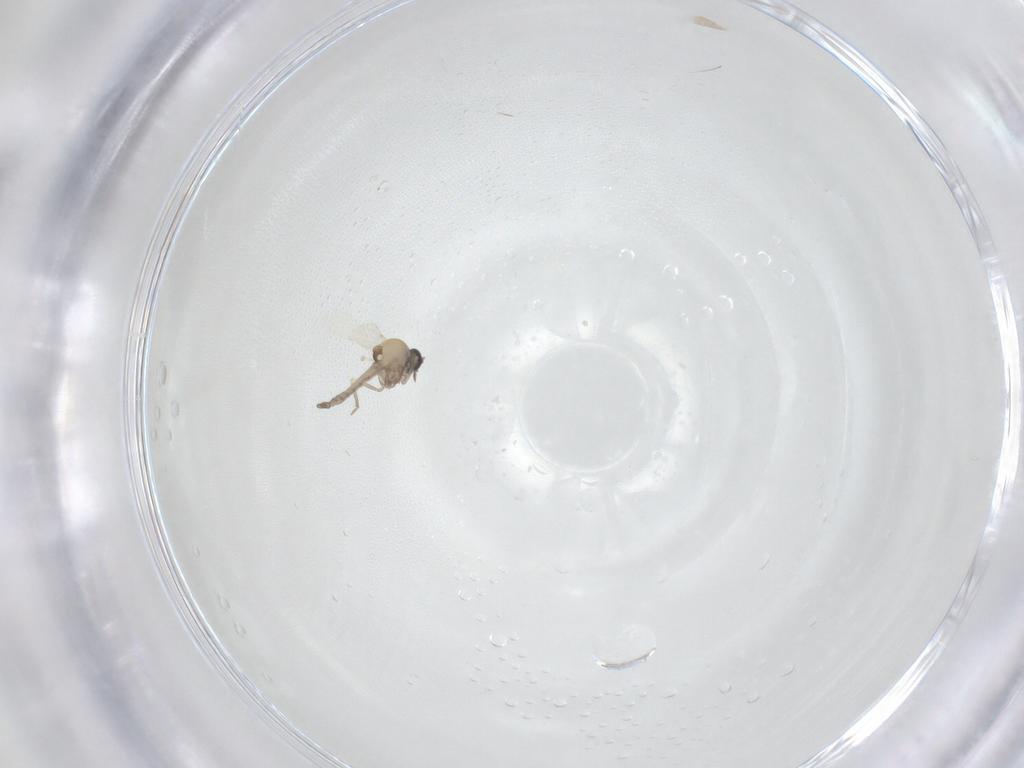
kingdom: Animalia
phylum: Arthropoda
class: Insecta
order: Diptera
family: Ceratopogonidae
